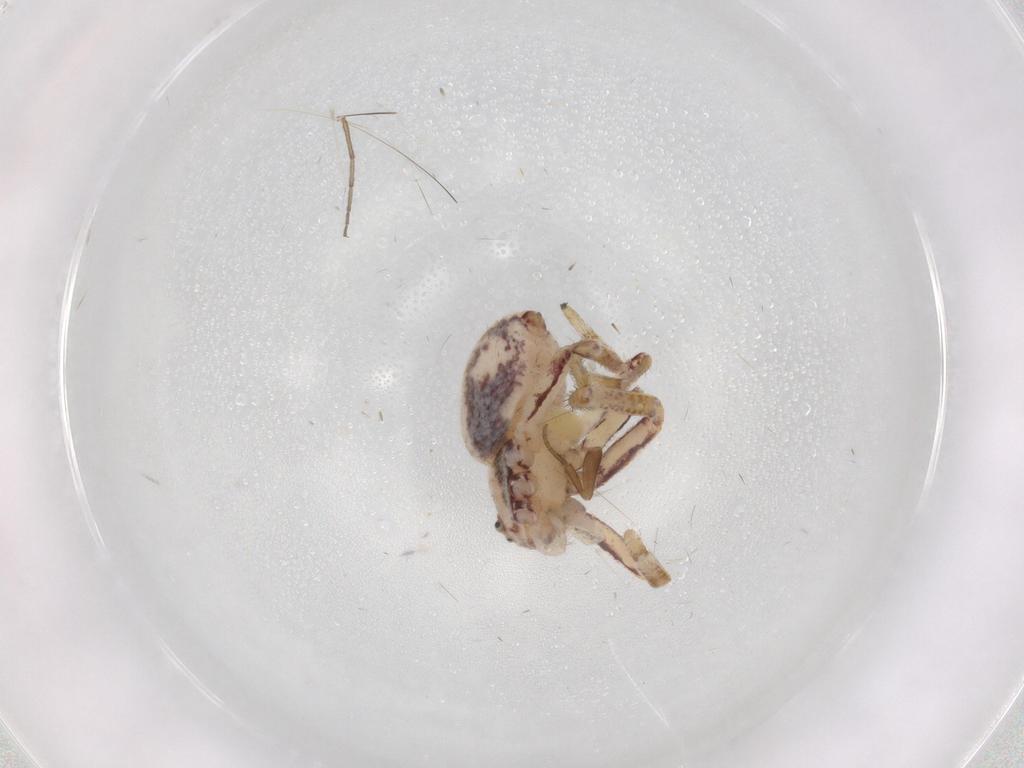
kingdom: Animalia
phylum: Arthropoda
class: Arachnida
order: Araneae
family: Philodromidae
